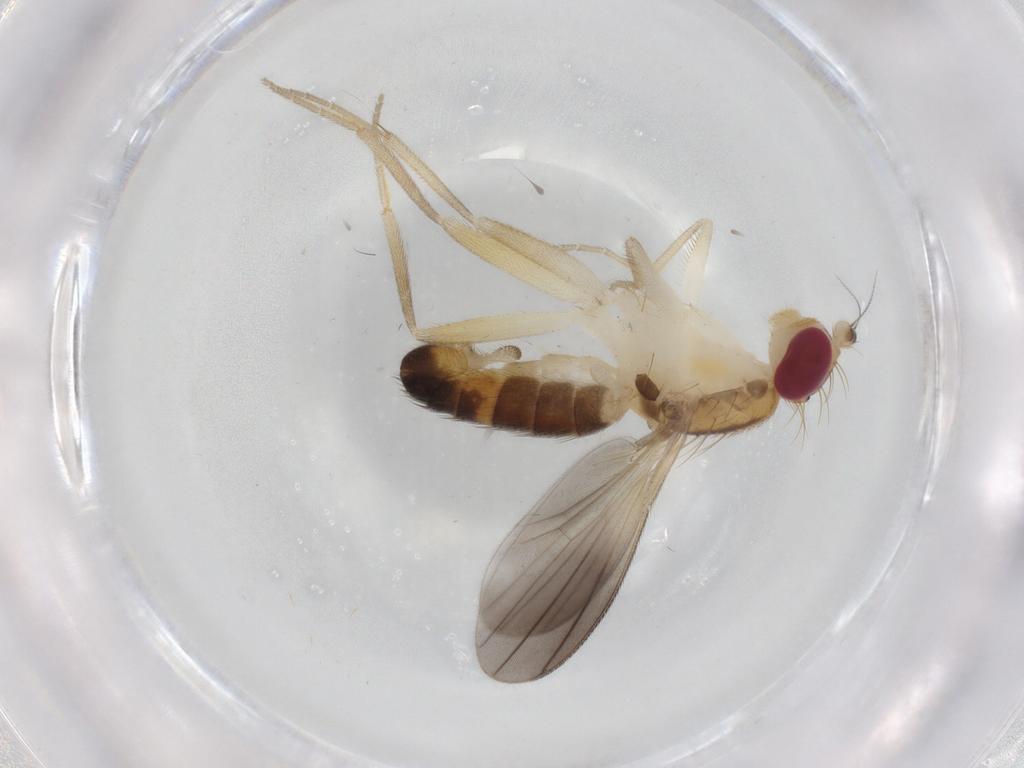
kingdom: Animalia
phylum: Arthropoda
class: Insecta
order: Diptera
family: Clusiidae
